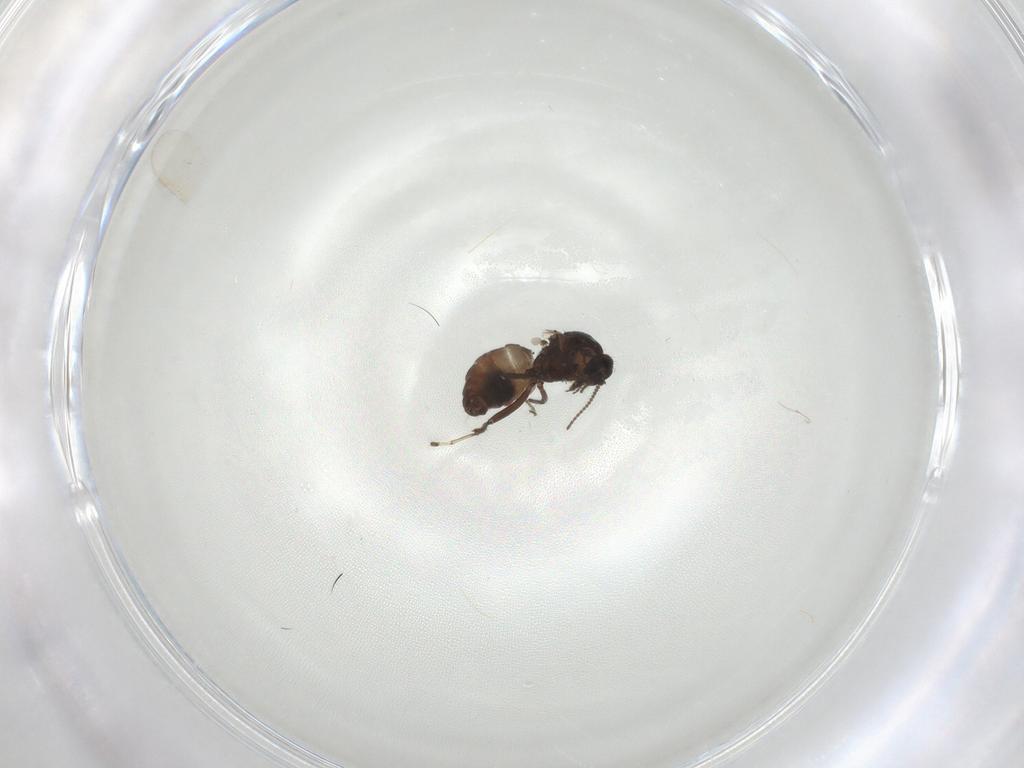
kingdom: Animalia
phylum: Arthropoda
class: Insecta
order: Diptera
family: Ceratopogonidae
